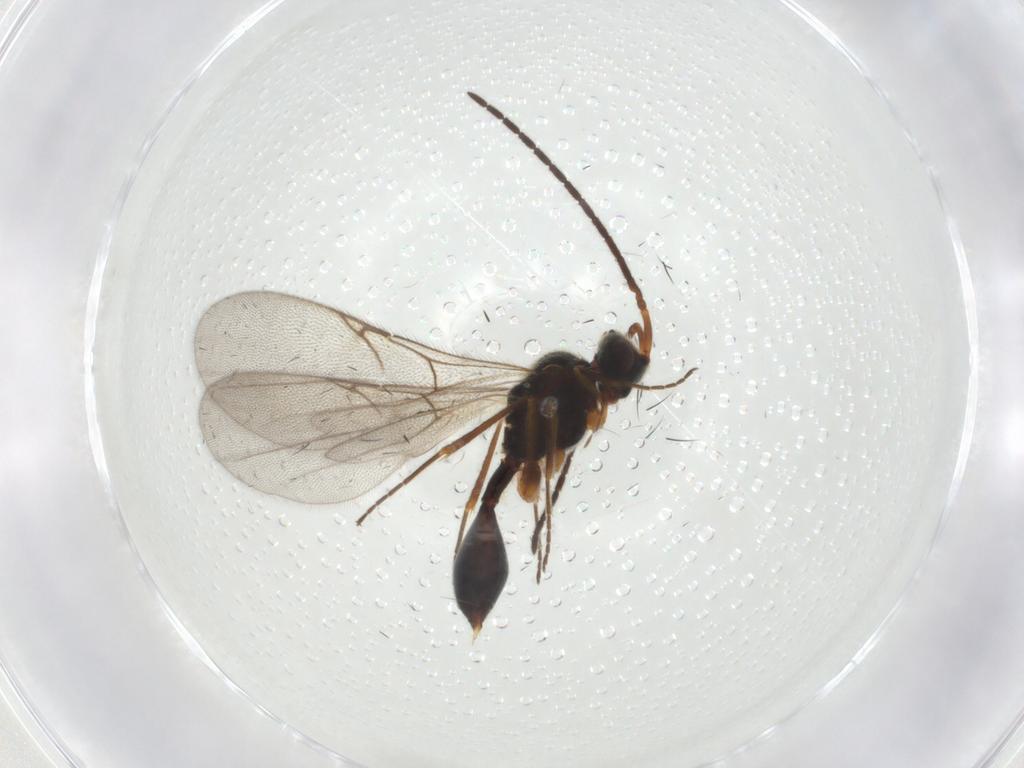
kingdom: Animalia
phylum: Arthropoda
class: Insecta
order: Hymenoptera
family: Diapriidae
